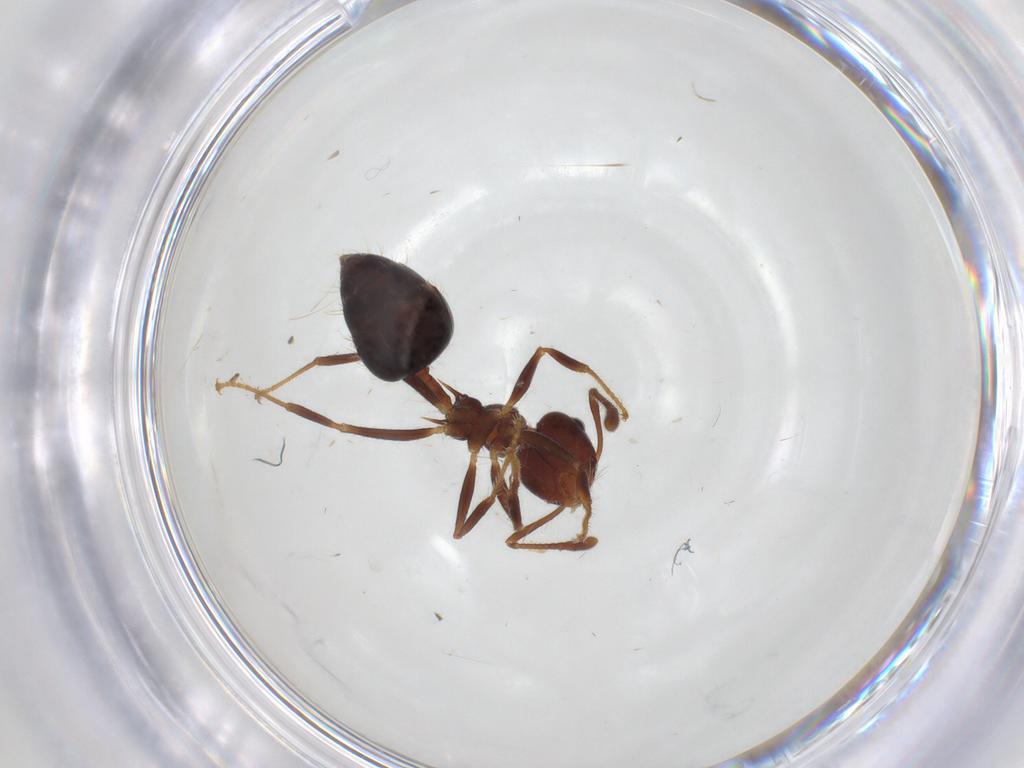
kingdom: Animalia
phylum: Arthropoda
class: Insecta
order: Hymenoptera
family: Formicidae
